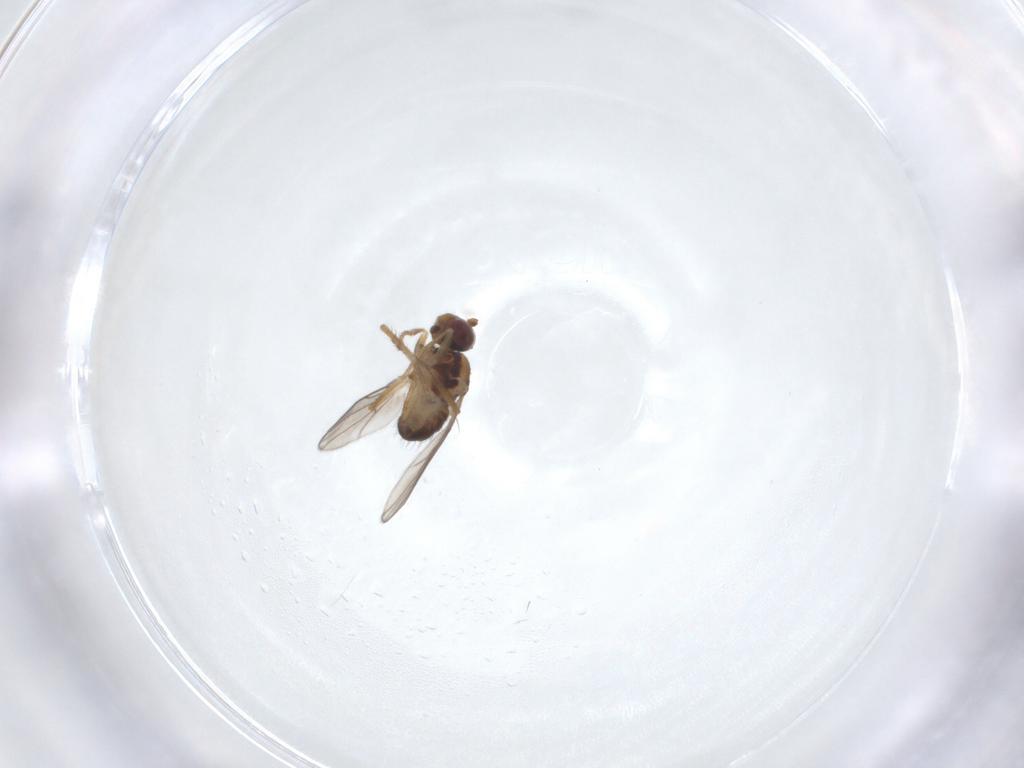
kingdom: Animalia
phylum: Arthropoda
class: Insecta
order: Diptera
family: Ephydridae
